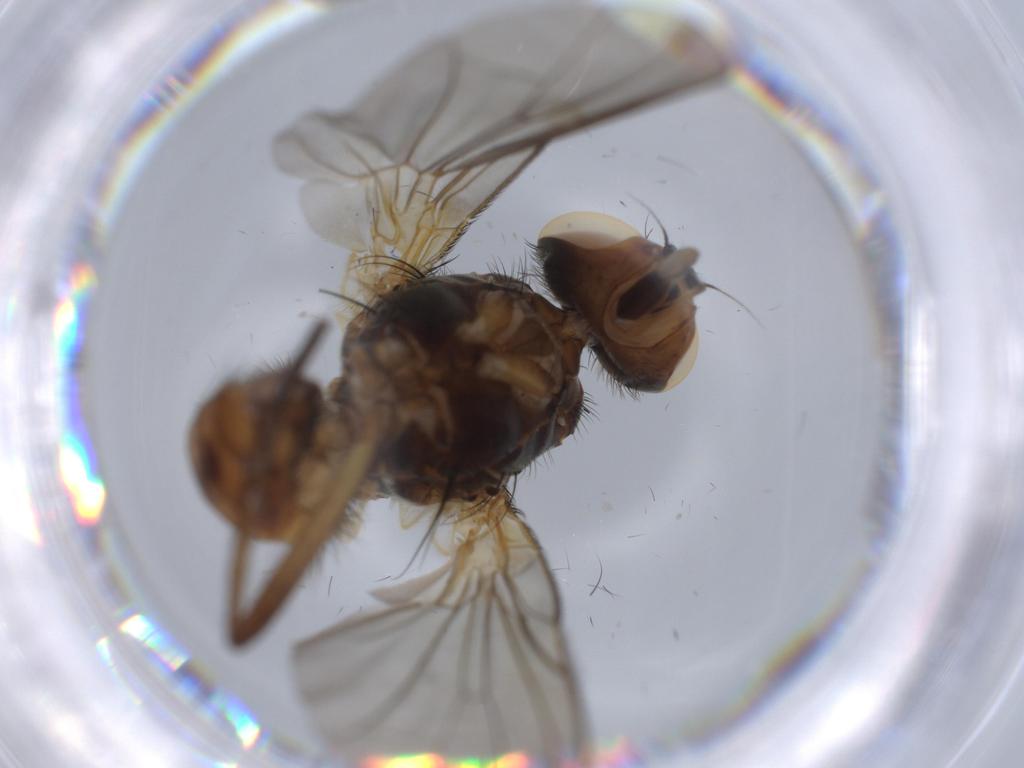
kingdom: Animalia
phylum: Arthropoda
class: Insecta
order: Diptera
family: Anthomyiidae
